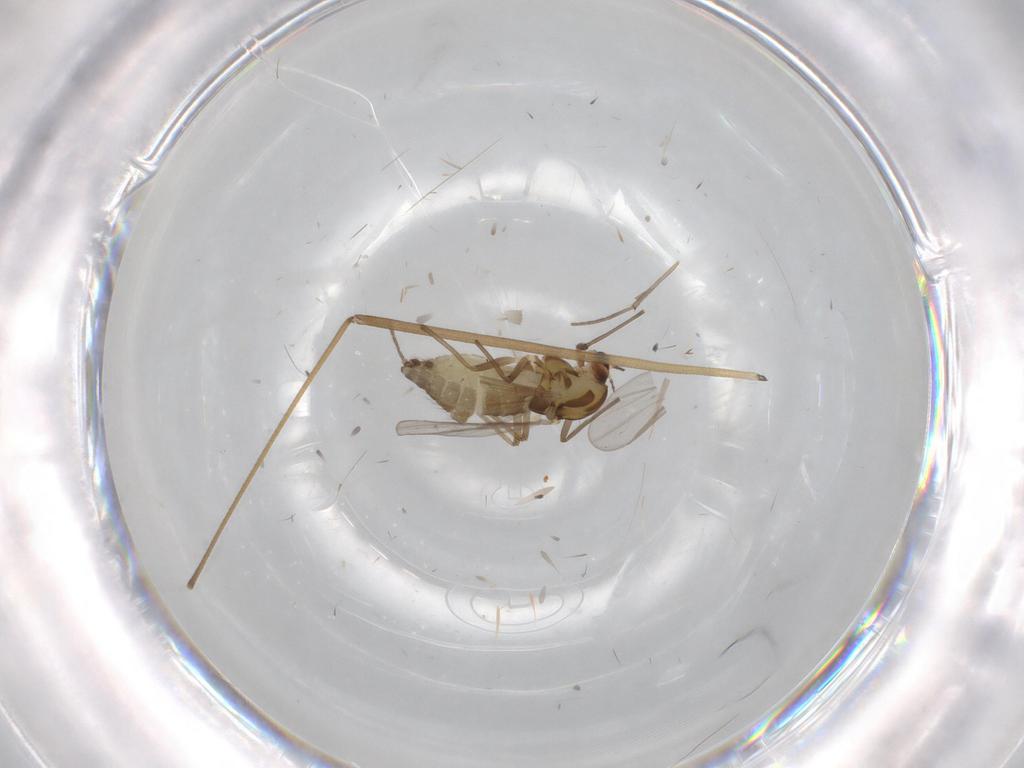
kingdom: Animalia
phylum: Arthropoda
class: Insecta
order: Diptera
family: Chironomidae
